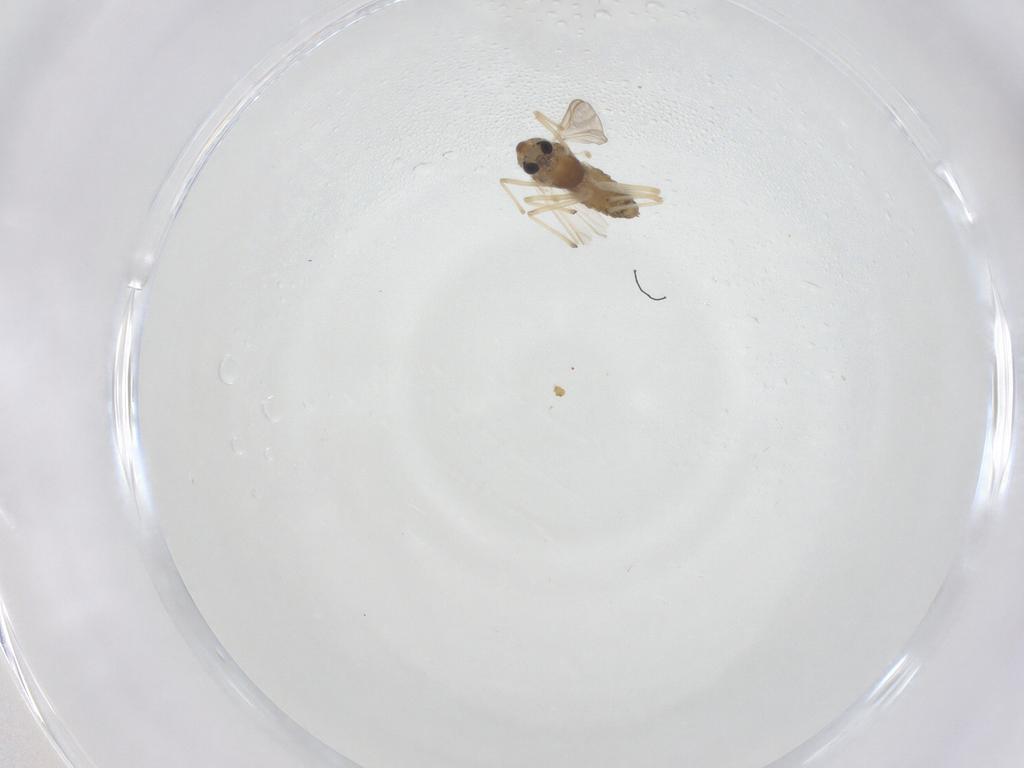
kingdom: Animalia
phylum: Arthropoda
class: Insecta
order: Diptera
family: Chironomidae
